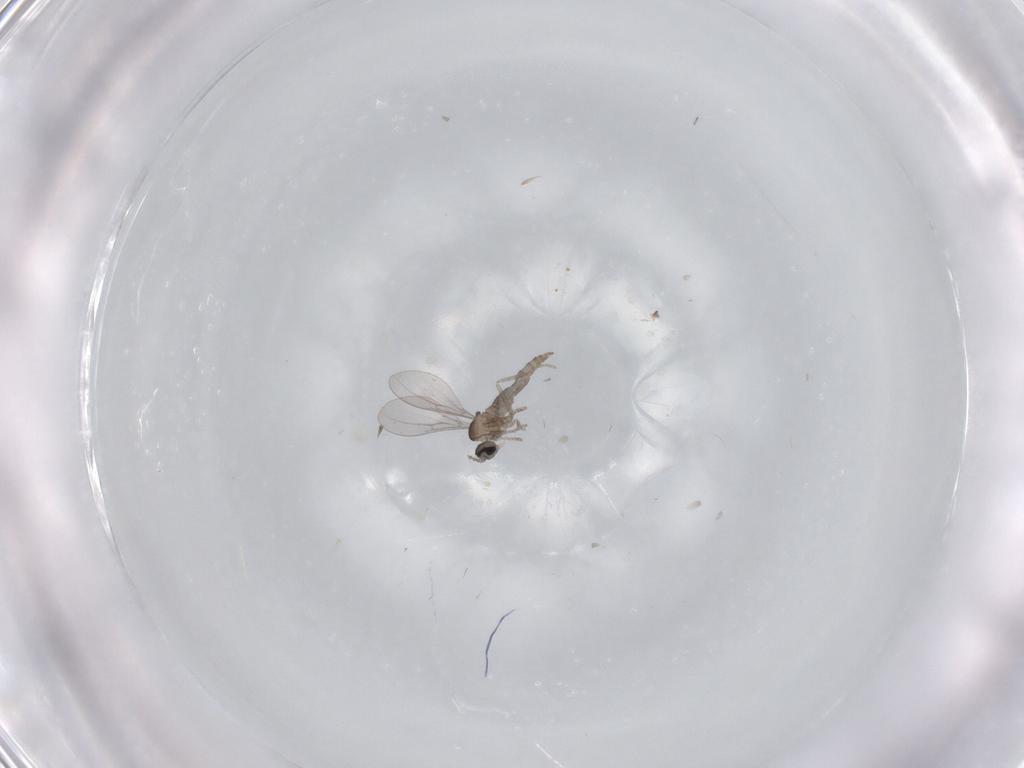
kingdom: Animalia
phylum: Arthropoda
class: Insecta
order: Diptera
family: Cecidomyiidae
